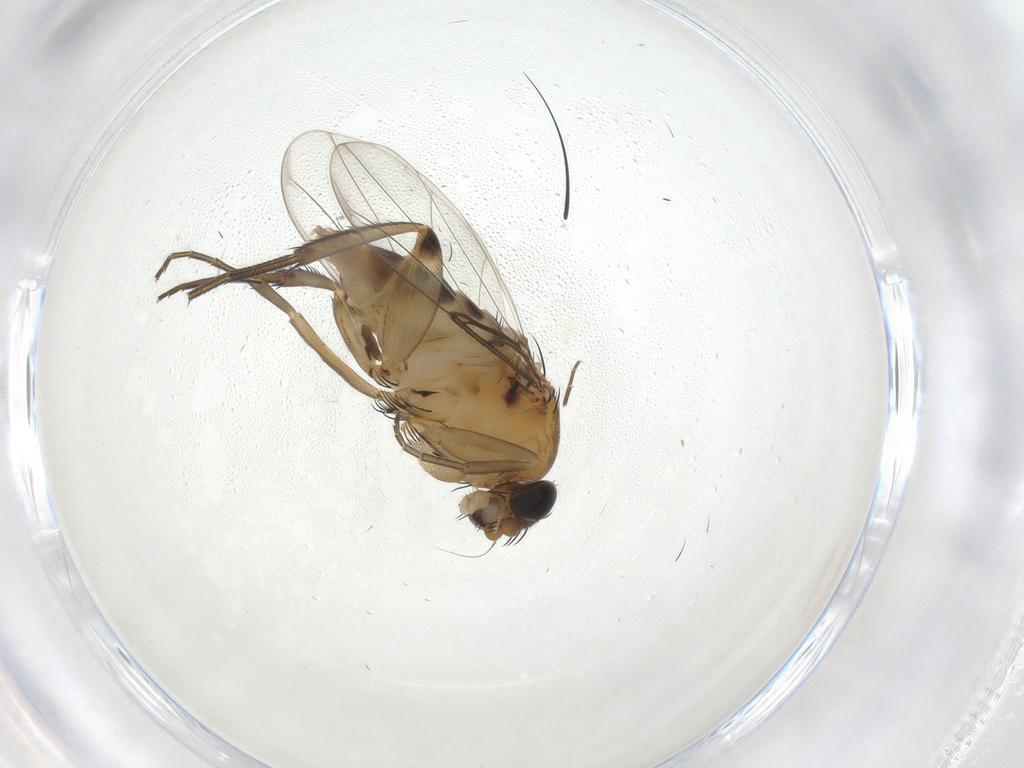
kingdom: Animalia
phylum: Arthropoda
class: Insecta
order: Diptera
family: Phoridae
